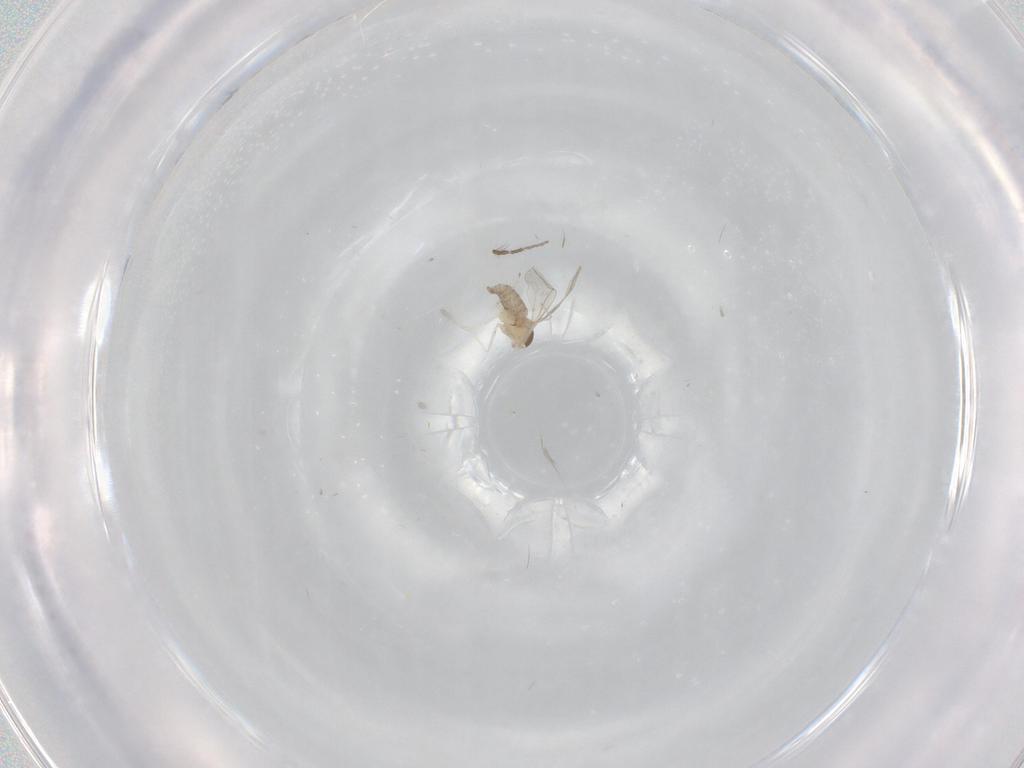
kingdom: Animalia
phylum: Arthropoda
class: Insecta
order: Diptera
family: Cecidomyiidae
